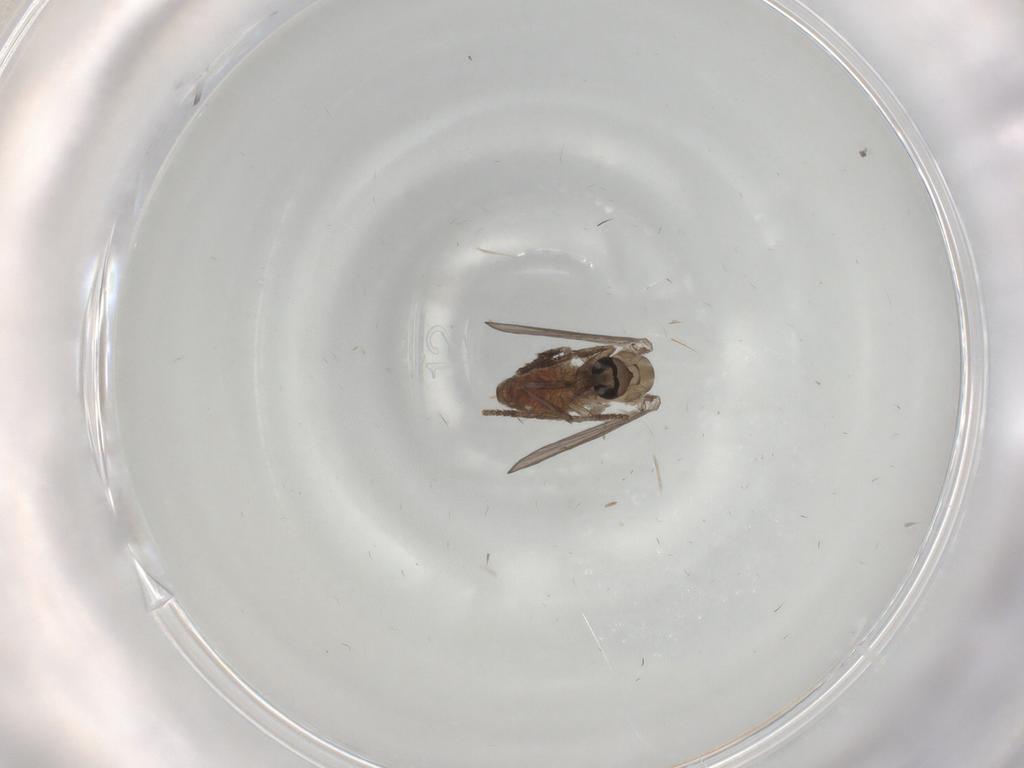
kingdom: Animalia
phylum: Arthropoda
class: Insecta
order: Diptera
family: Psychodidae
